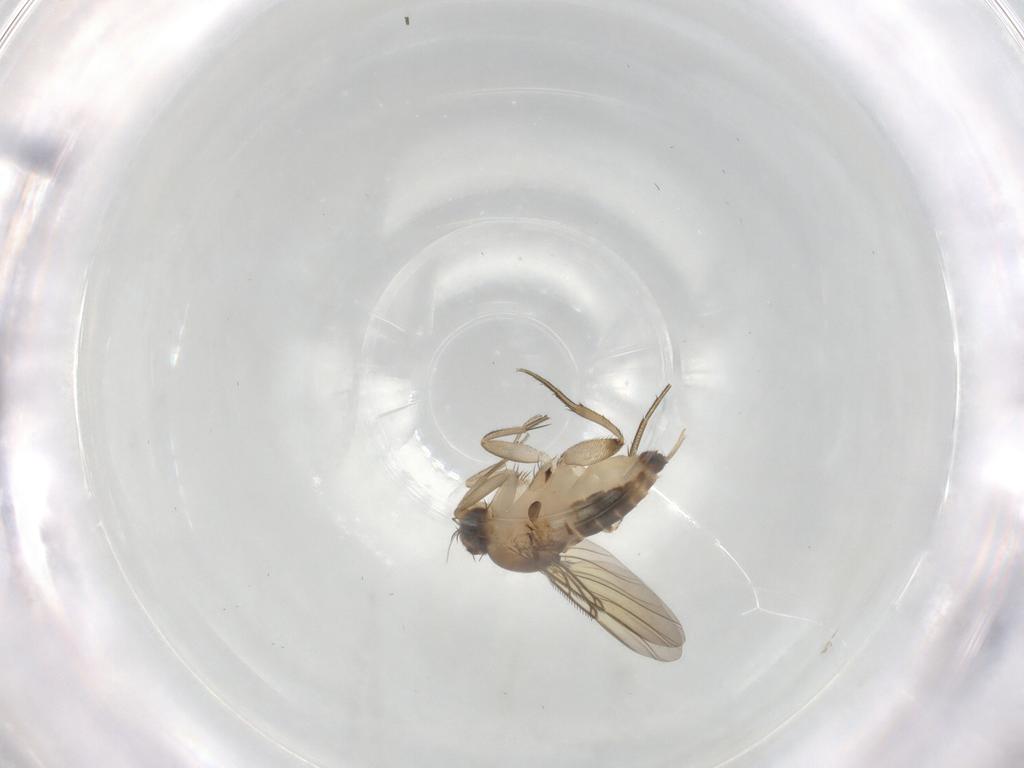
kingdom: Animalia
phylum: Arthropoda
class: Insecta
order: Diptera
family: Phoridae
